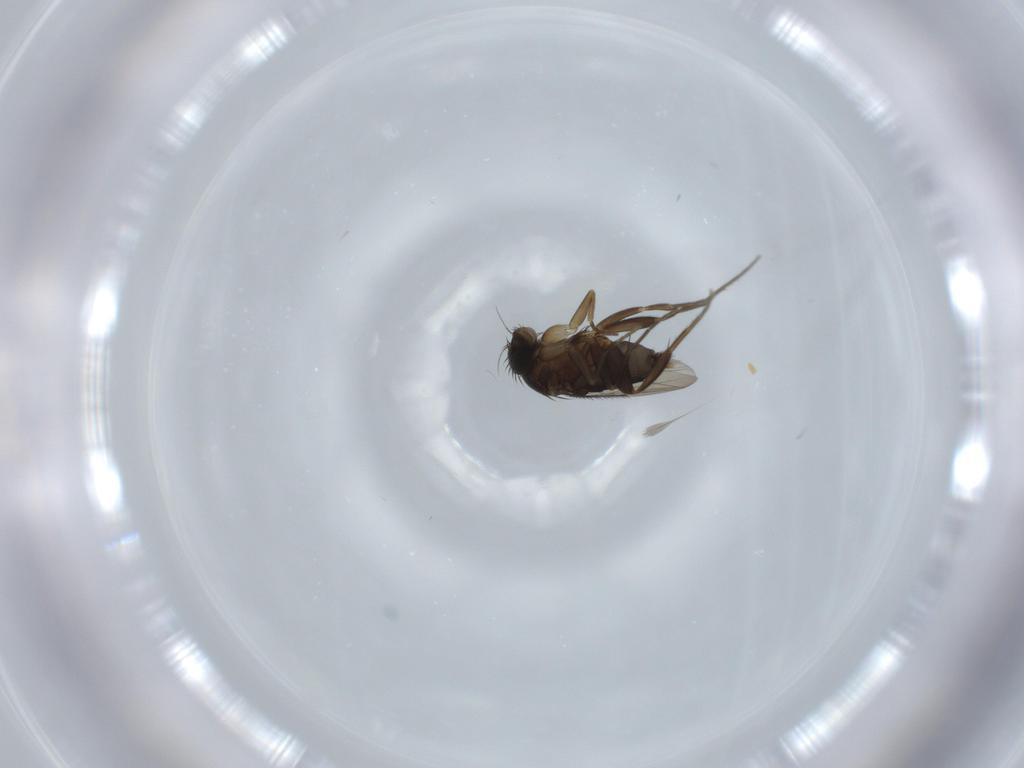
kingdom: Animalia
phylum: Arthropoda
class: Insecta
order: Diptera
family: Phoridae
